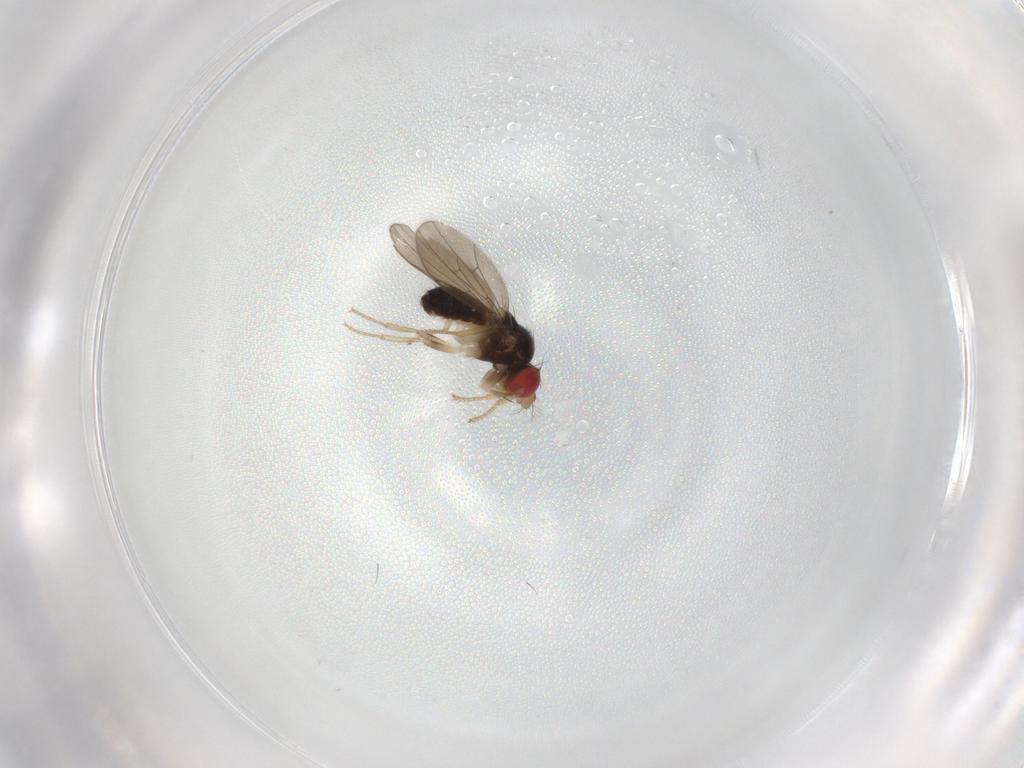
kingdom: Animalia
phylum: Arthropoda
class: Insecta
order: Diptera
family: Drosophilidae
